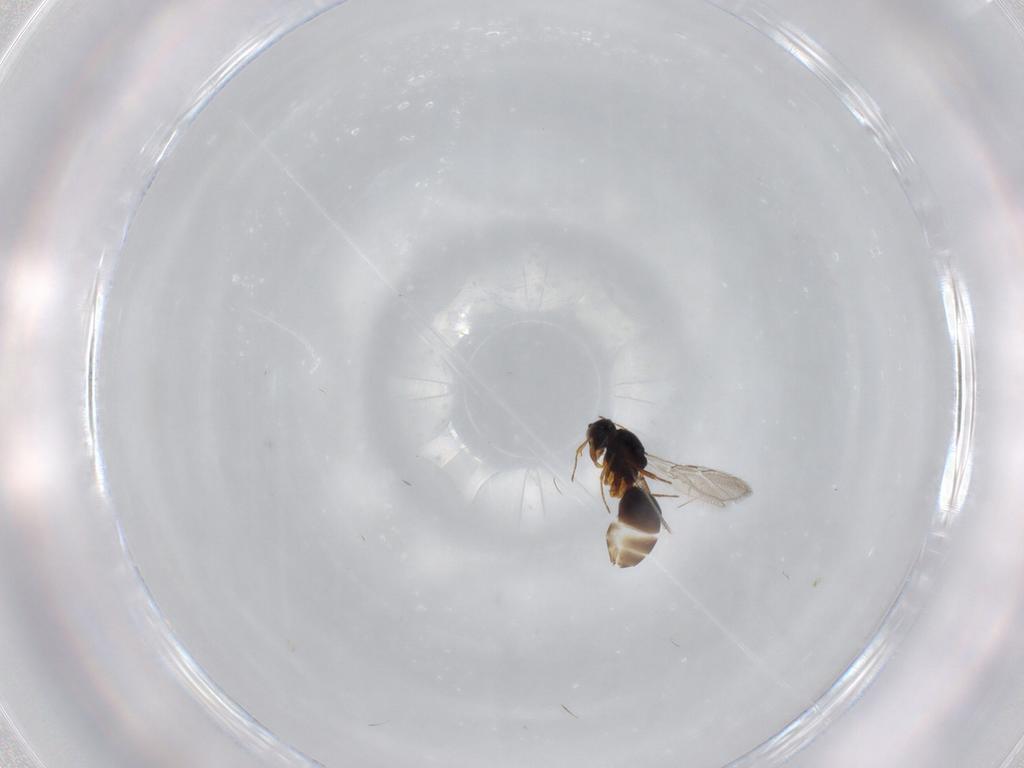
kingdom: Animalia
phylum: Arthropoda
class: Insecta
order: Hymenoptera
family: Bethylidae
